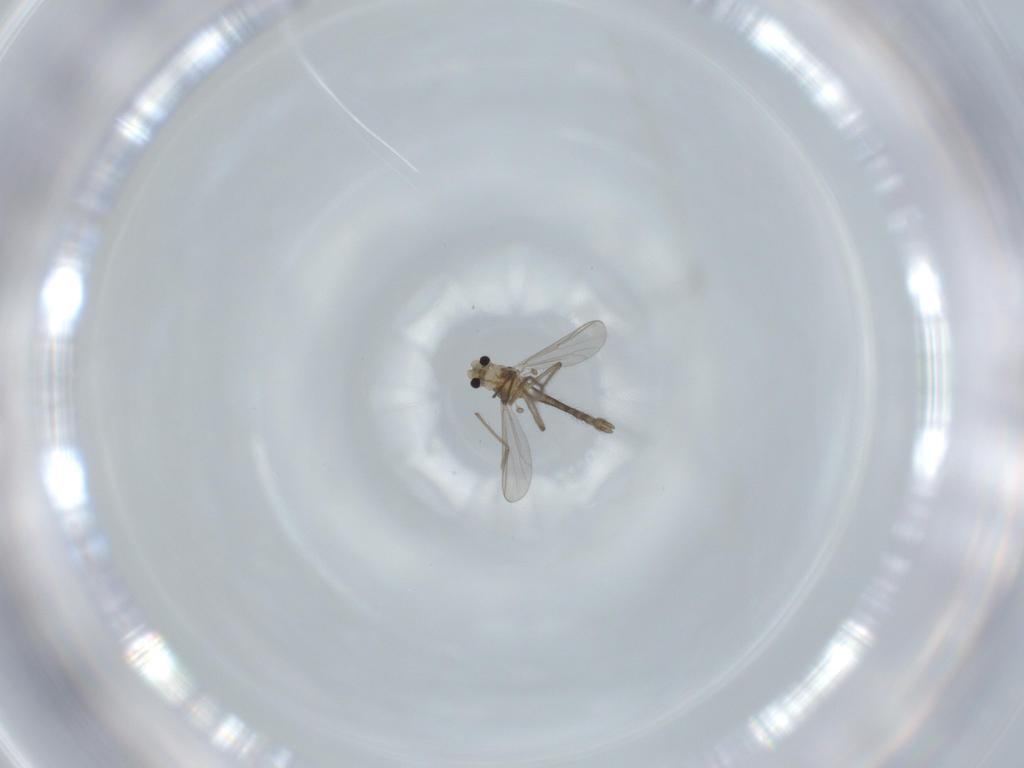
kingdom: Animalia
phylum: Arthropoda
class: Insecta
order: Diptera
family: Chironomidae
